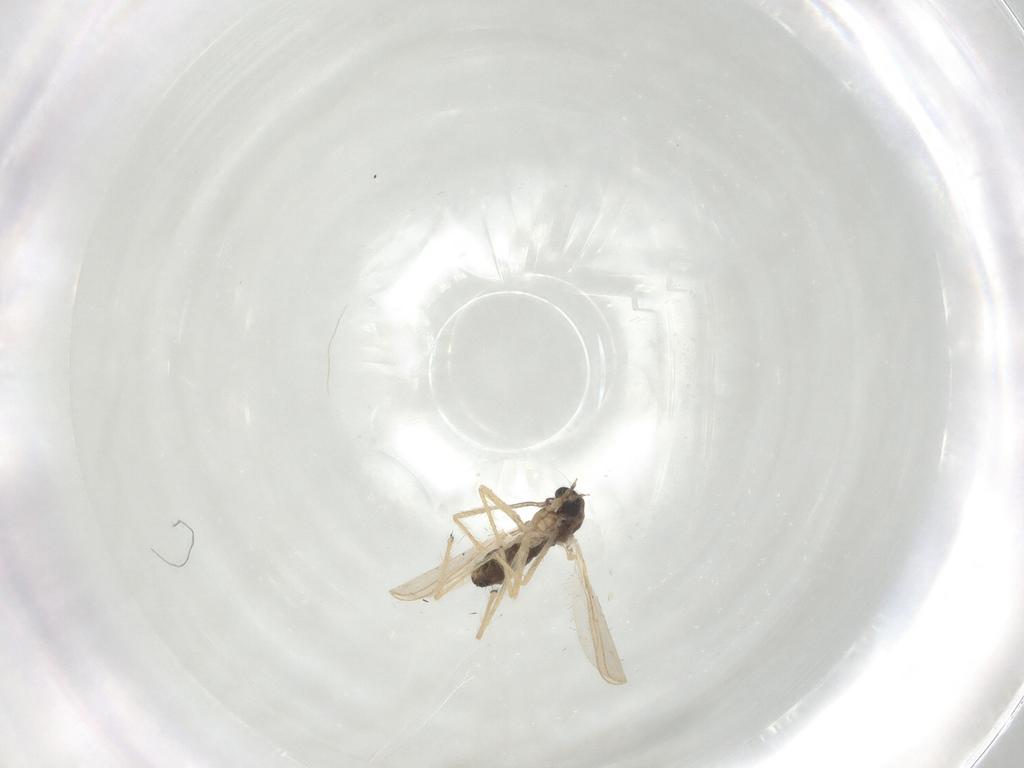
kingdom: Animalia
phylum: Arthropoda
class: Insecta
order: Diptera
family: Chironomidae
